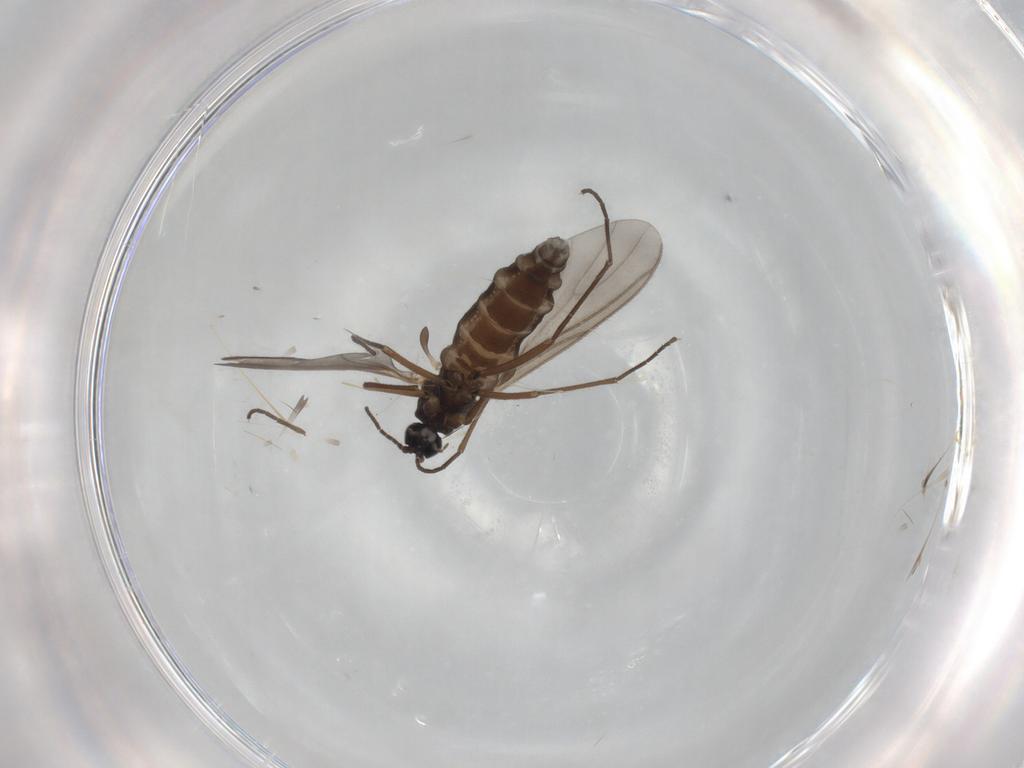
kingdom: Animalia
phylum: Arthropoda
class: Insecta
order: Diptera
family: Sciaridae
